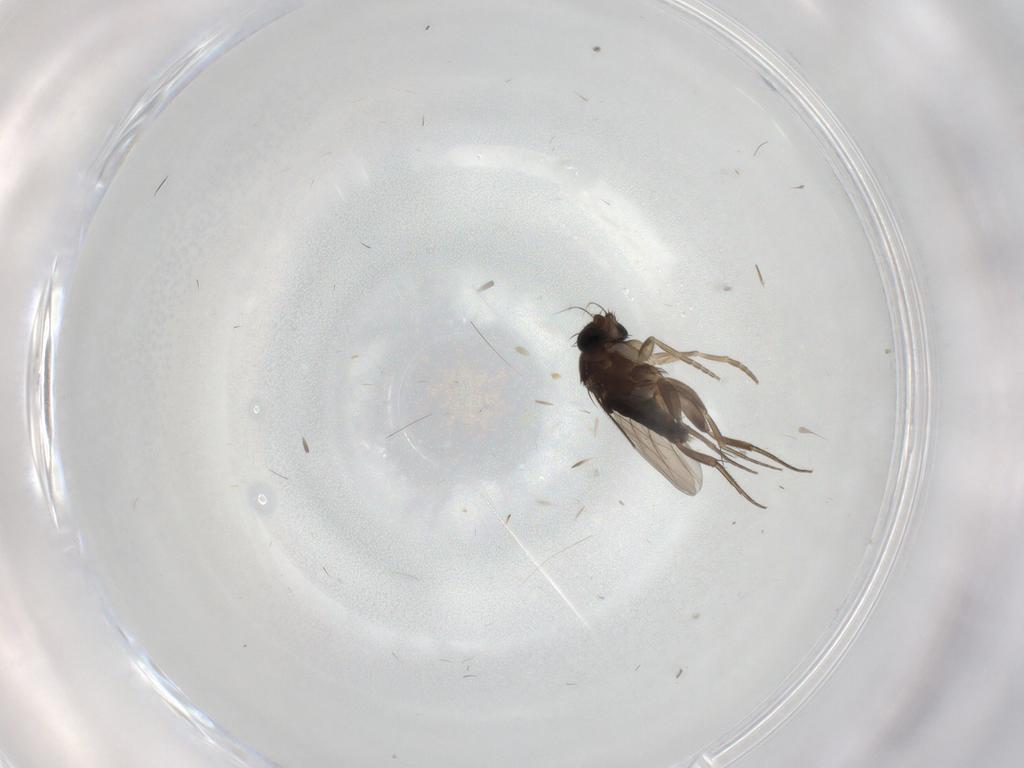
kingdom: Animalia
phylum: Arthropoda
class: Insecta
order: Diptera
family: Phoridae
